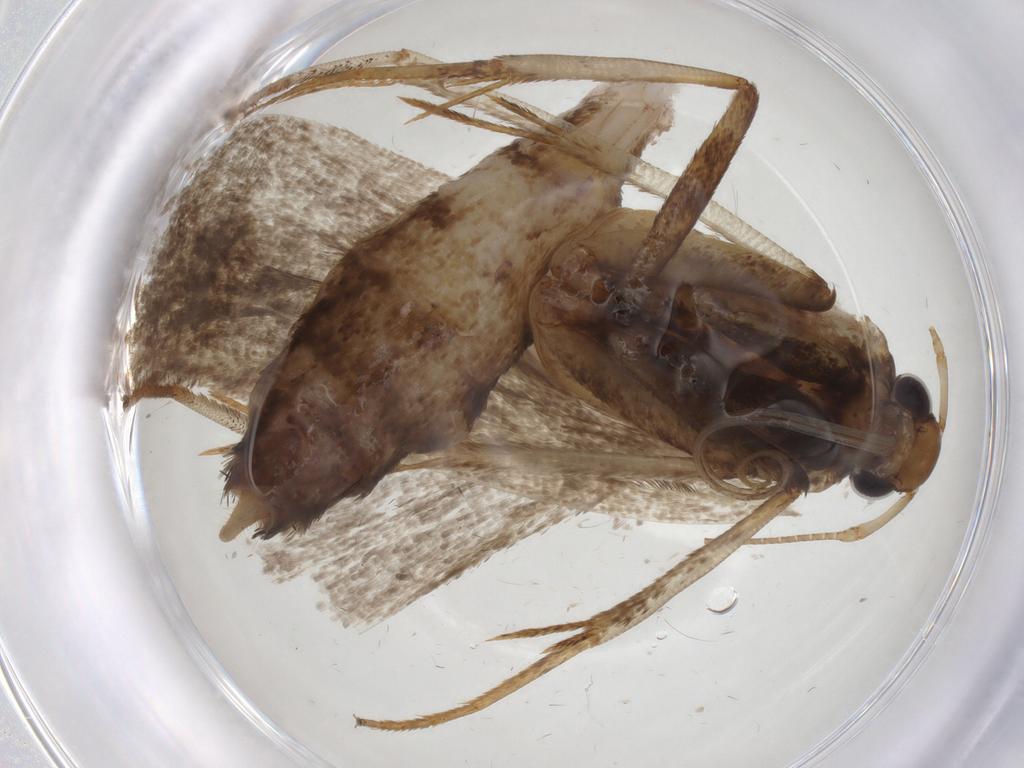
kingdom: Animalia
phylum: Arthropoda
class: Insecta
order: Lepidoptera
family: Gelechiidae
